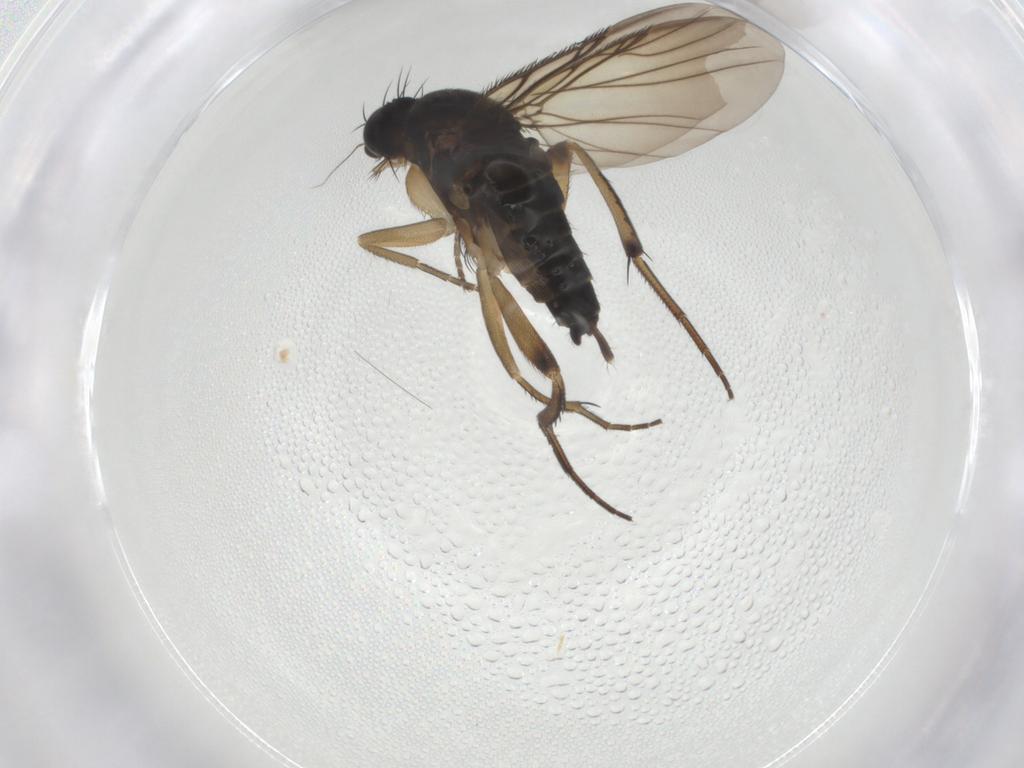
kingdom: Animalia
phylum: Arthropoda
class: Insecta
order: Diptera
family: Phoridae
